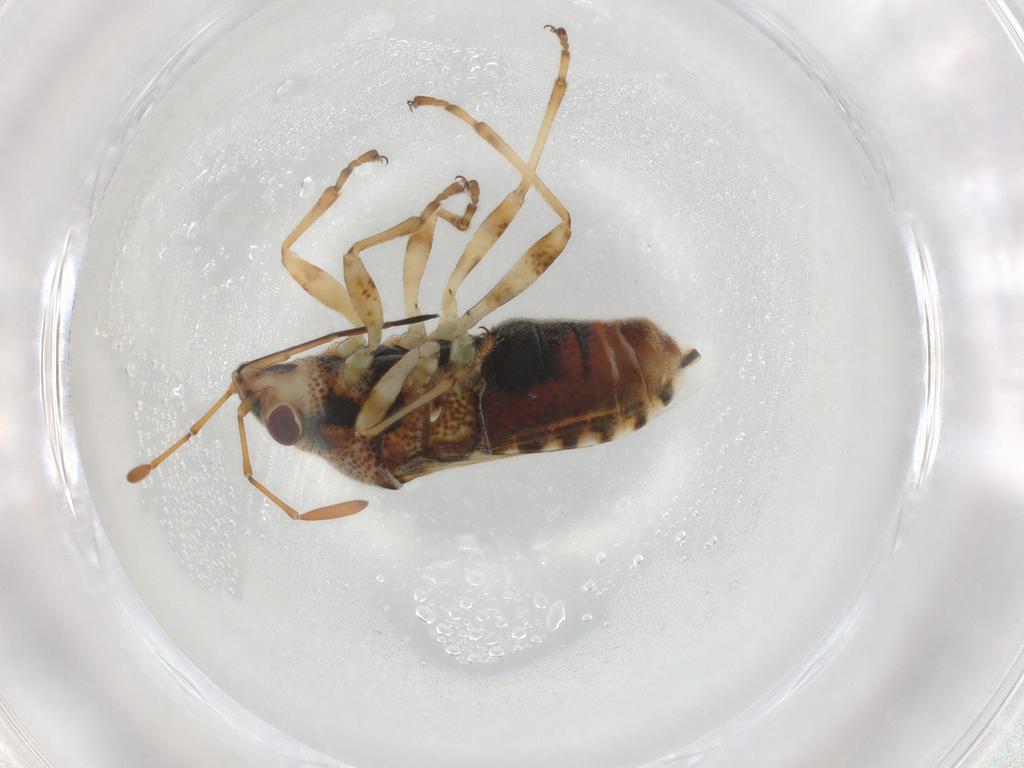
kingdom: Animalia
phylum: Arthropoda
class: Insecta
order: Hemiptera
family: Lygaeidae
